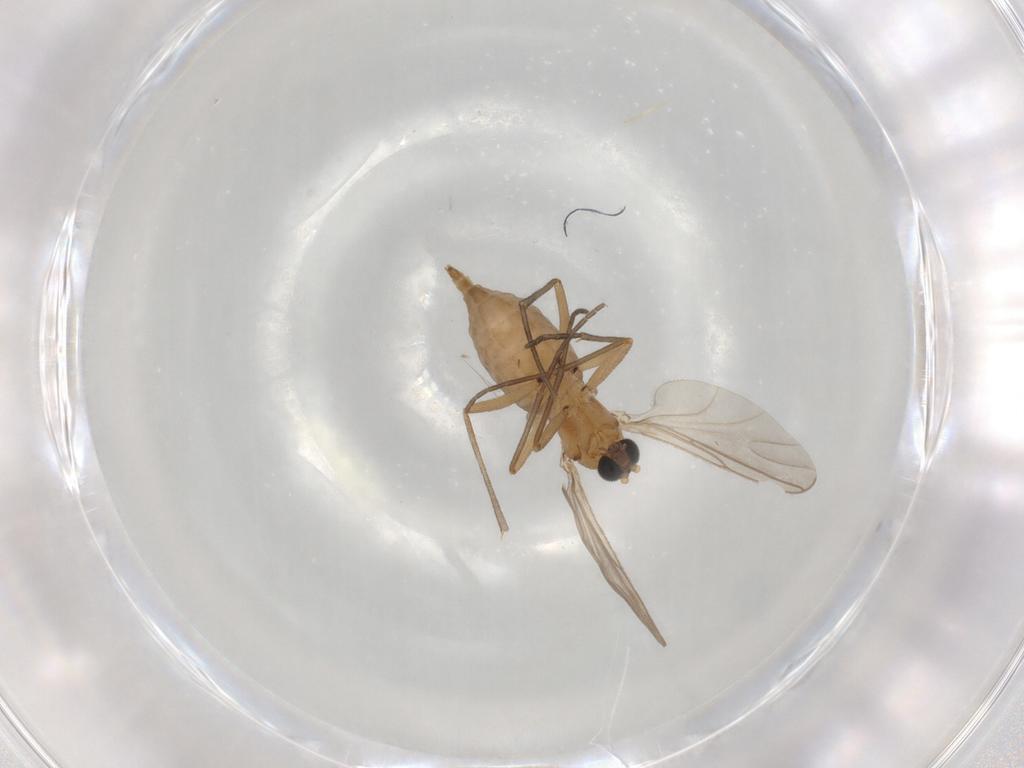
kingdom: Animalia
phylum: Arthropoda
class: Insecta
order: Diptera
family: Sciaridae
